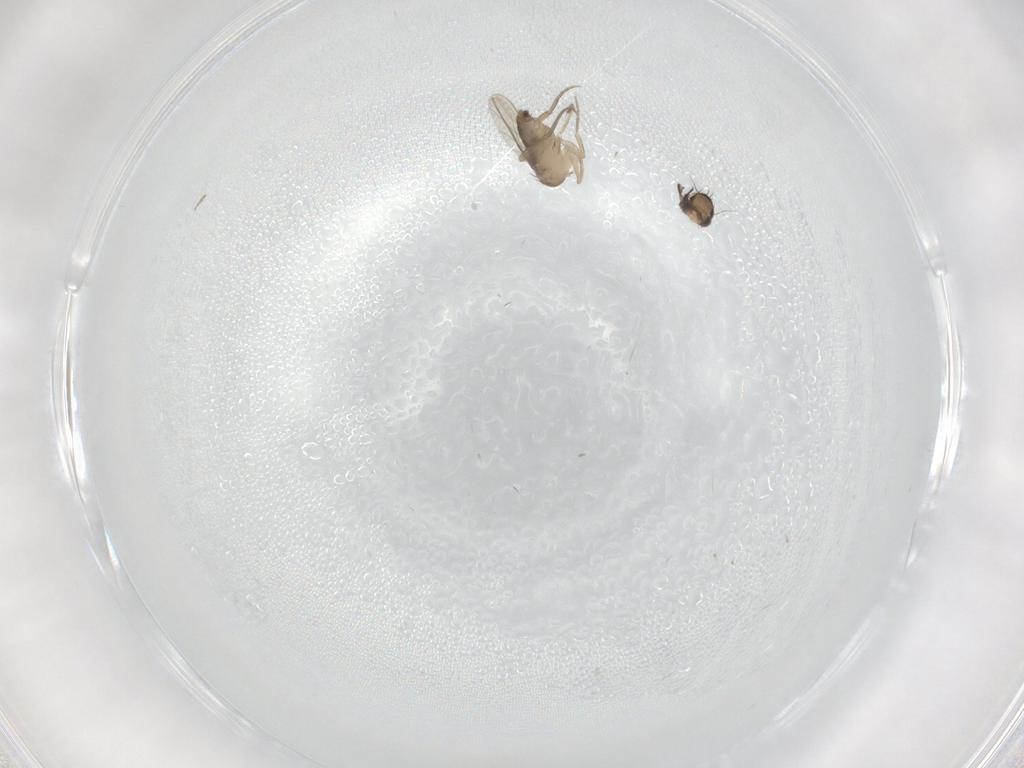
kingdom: Animalia
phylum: Arthropoda
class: Insecta
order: Diptera
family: Phoridae
